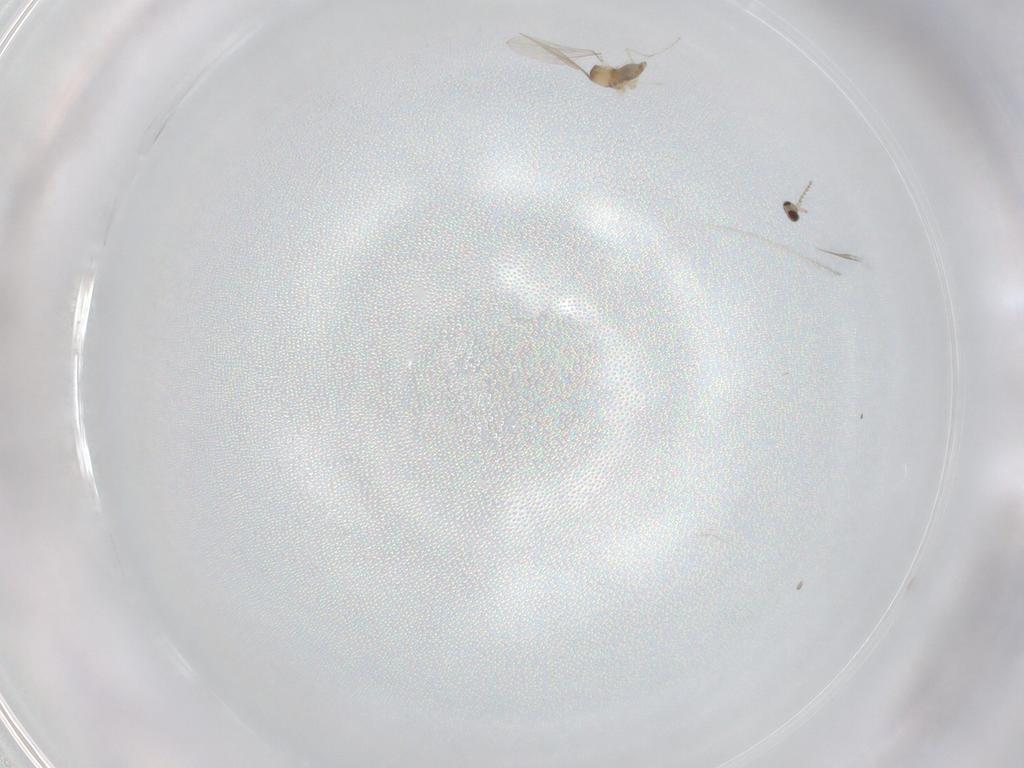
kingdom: Animalia
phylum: Arthropoda
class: Insecta
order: Diptera
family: Cecidomyiidae
